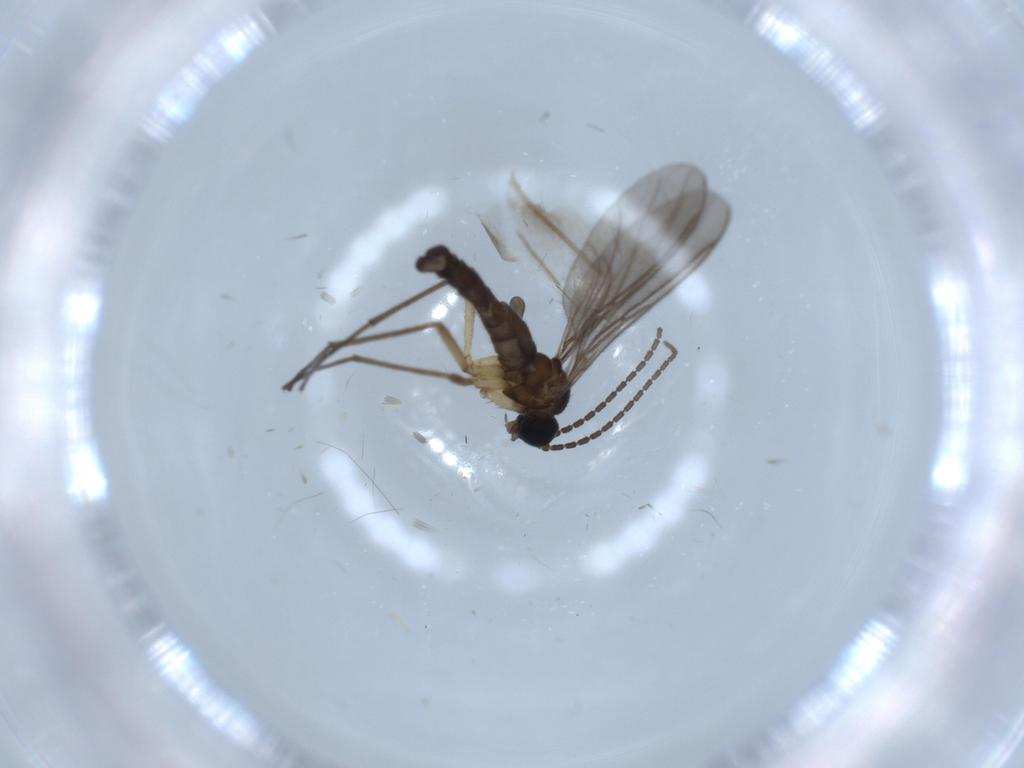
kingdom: Animalia
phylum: Arthropoda
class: Insecta
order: Diptera
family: Sciaridae
